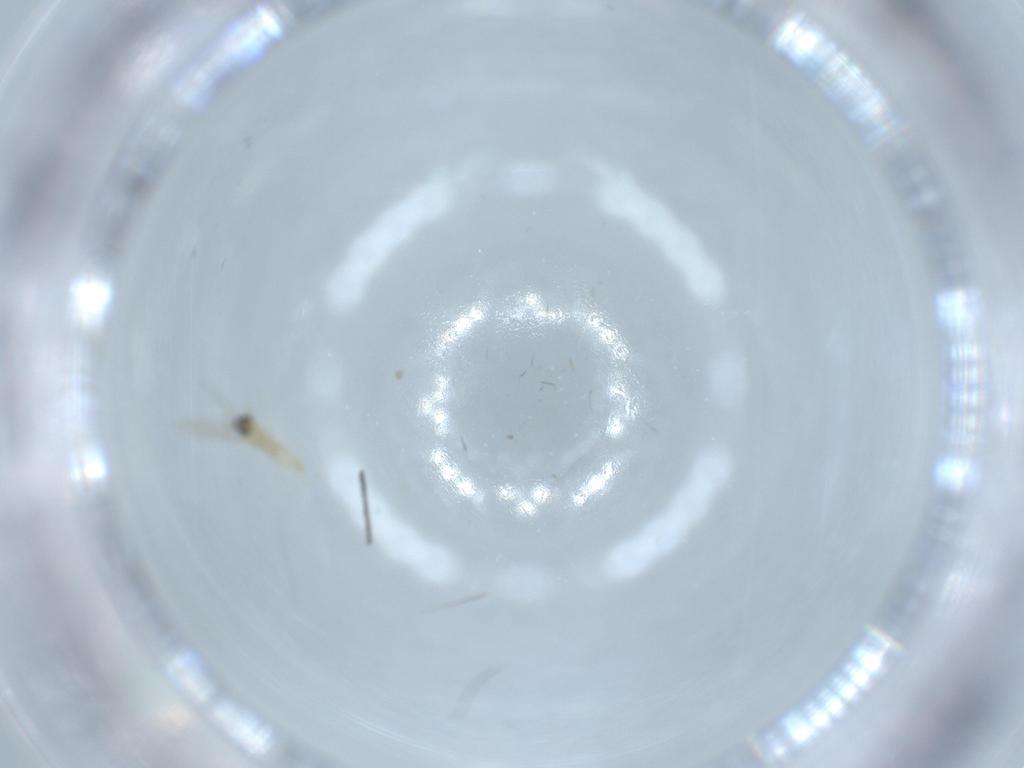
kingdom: Animalia
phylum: Arthropoda
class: Insecta
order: Diptera
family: Cecidomyiidae
